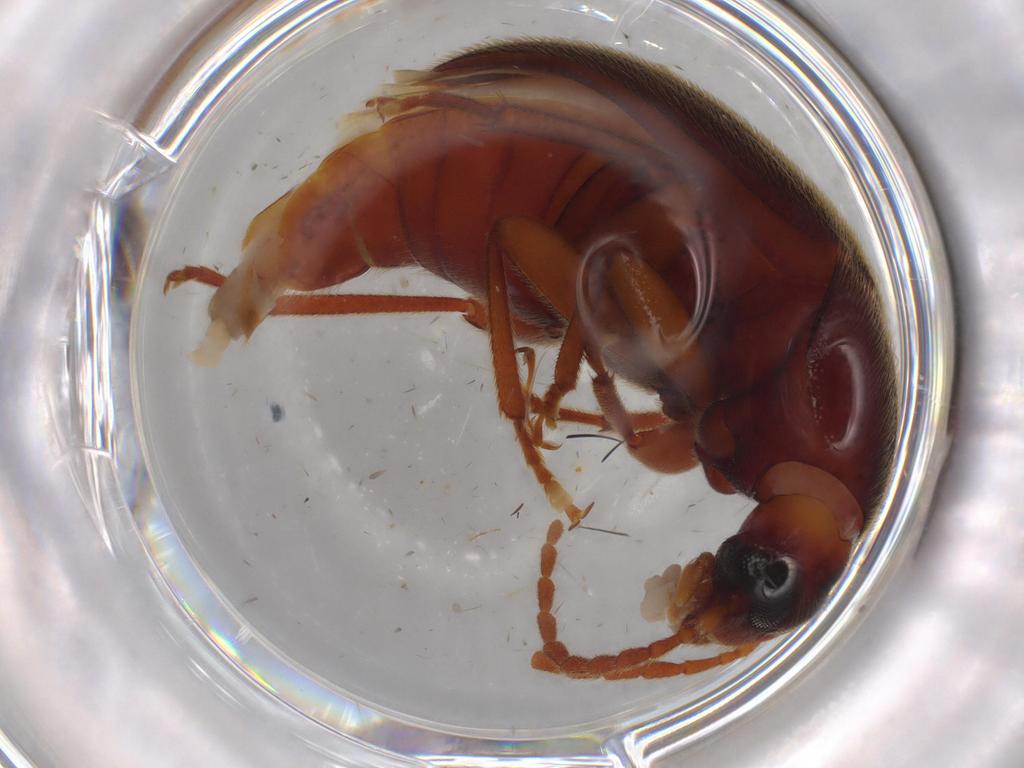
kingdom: Animalia
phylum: Arthropoda
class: Insecta
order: Coleoptera
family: Tenebrionidae
